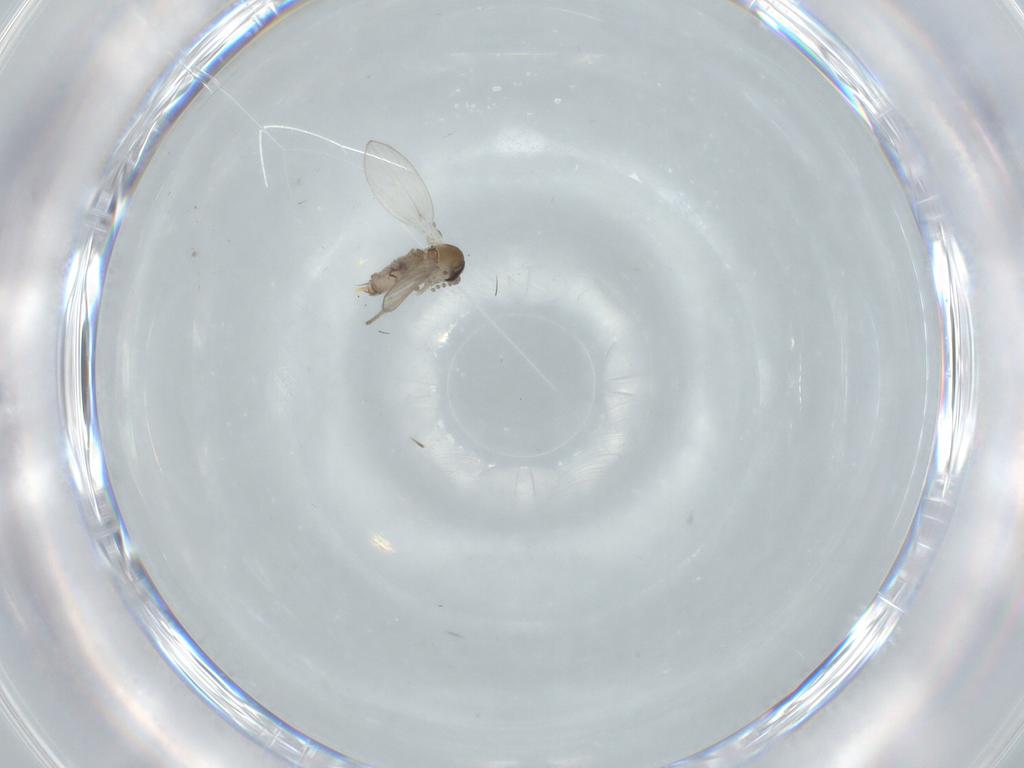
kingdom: Animalia
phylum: Arthropoda
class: Insecta
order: Diptera
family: Psychodidae
